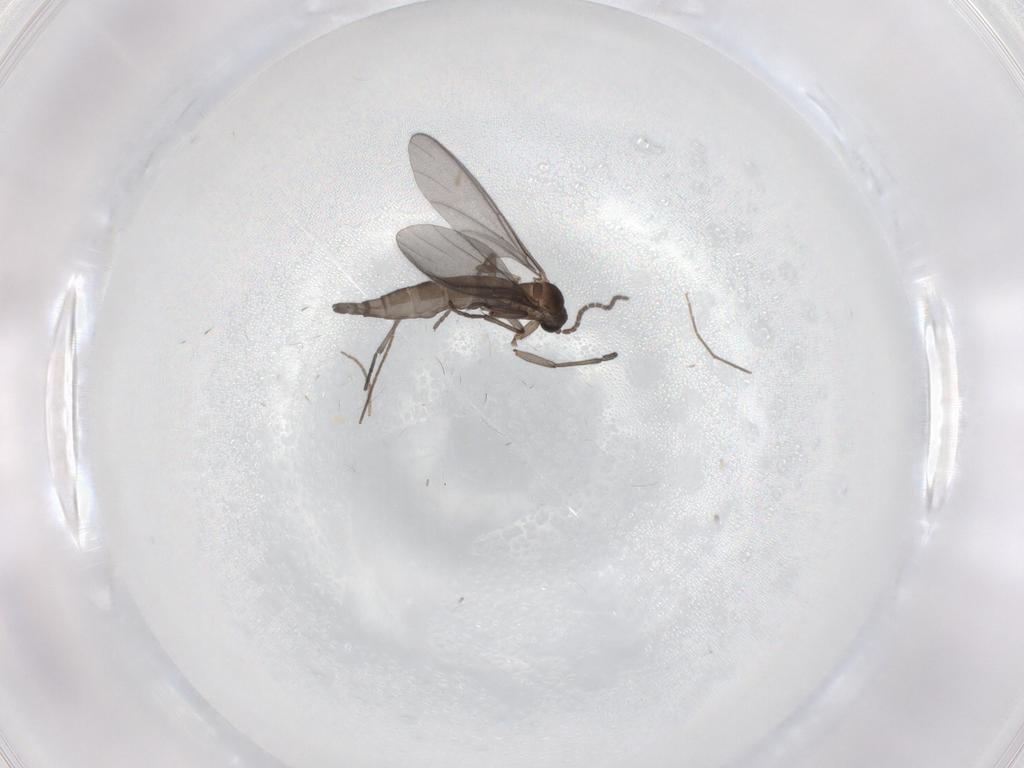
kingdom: Animalia
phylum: Arthropoda
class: Insecta
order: Diptera
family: Sciaridae
